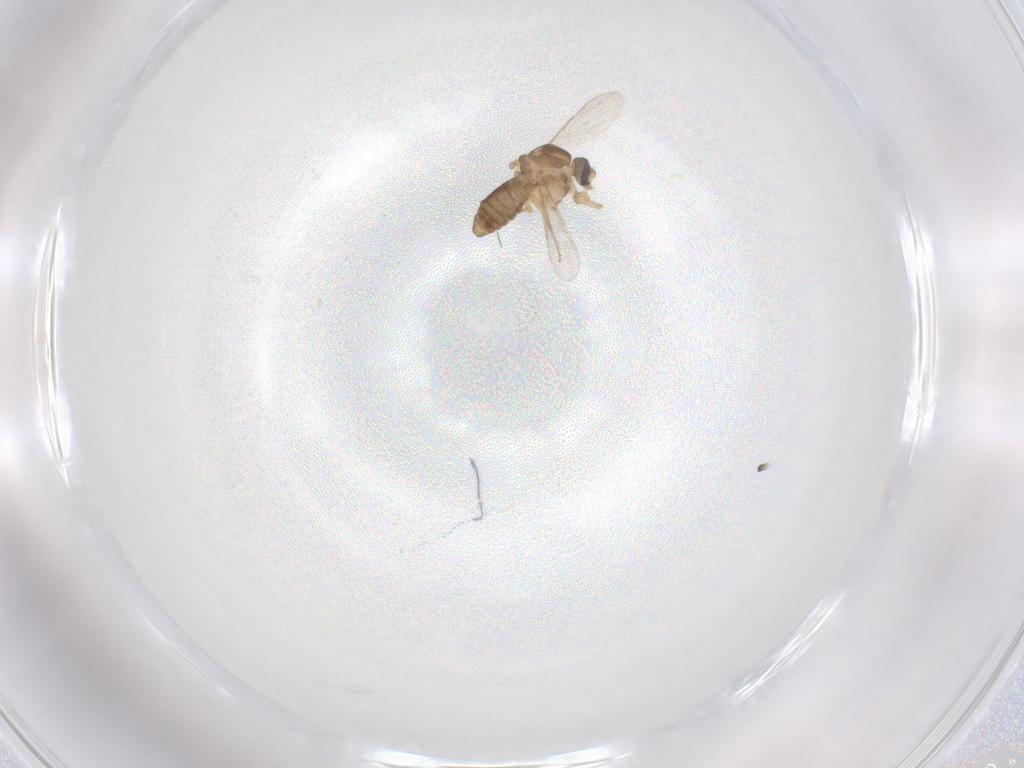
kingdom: Animalia
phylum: Arthropoda
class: Insecta
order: Diptera
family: Ceratopogonidae
